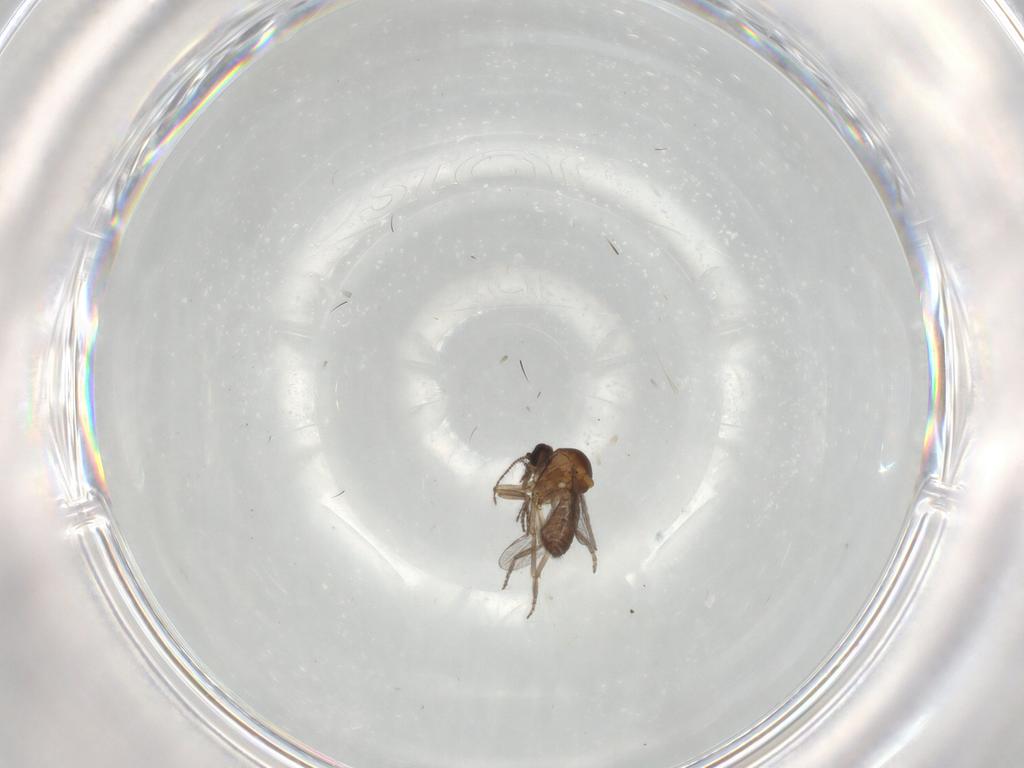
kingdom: Animalia
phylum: Arthropoda
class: Insecta
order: Diptera
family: Limoniidae
